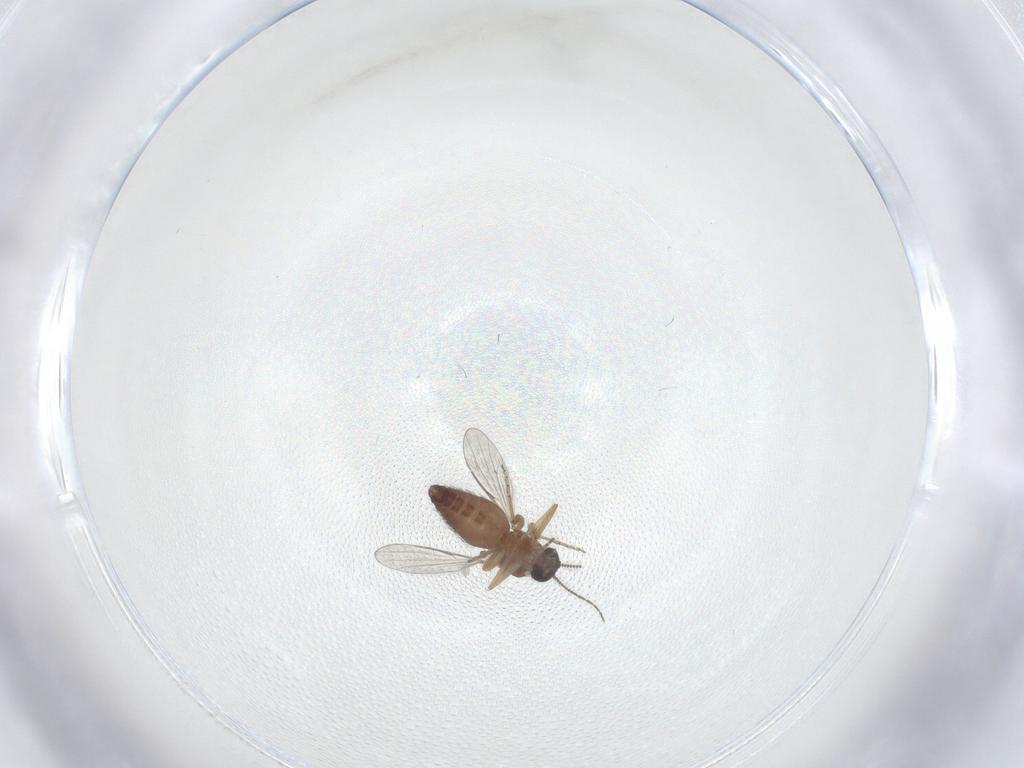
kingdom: Animalia
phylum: Arthropoda
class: Insecta
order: Diptera
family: Ceratopogonidae
